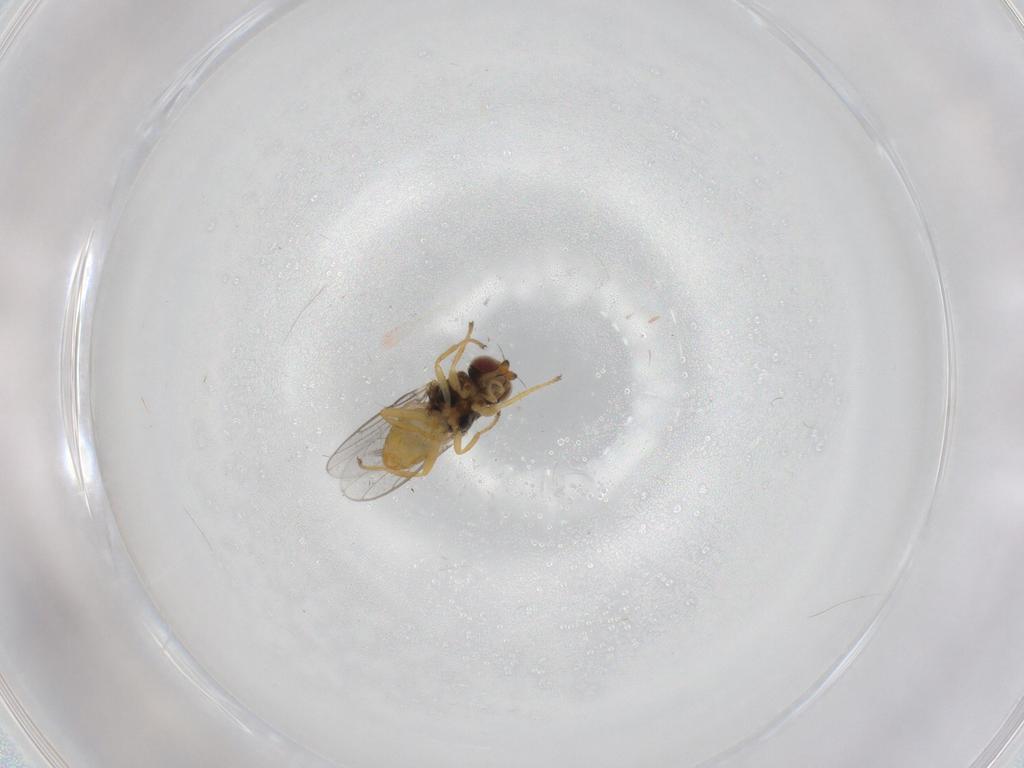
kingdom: Animalia
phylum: Arthropoda
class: Insecta
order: Diptera
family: Chloropidae
